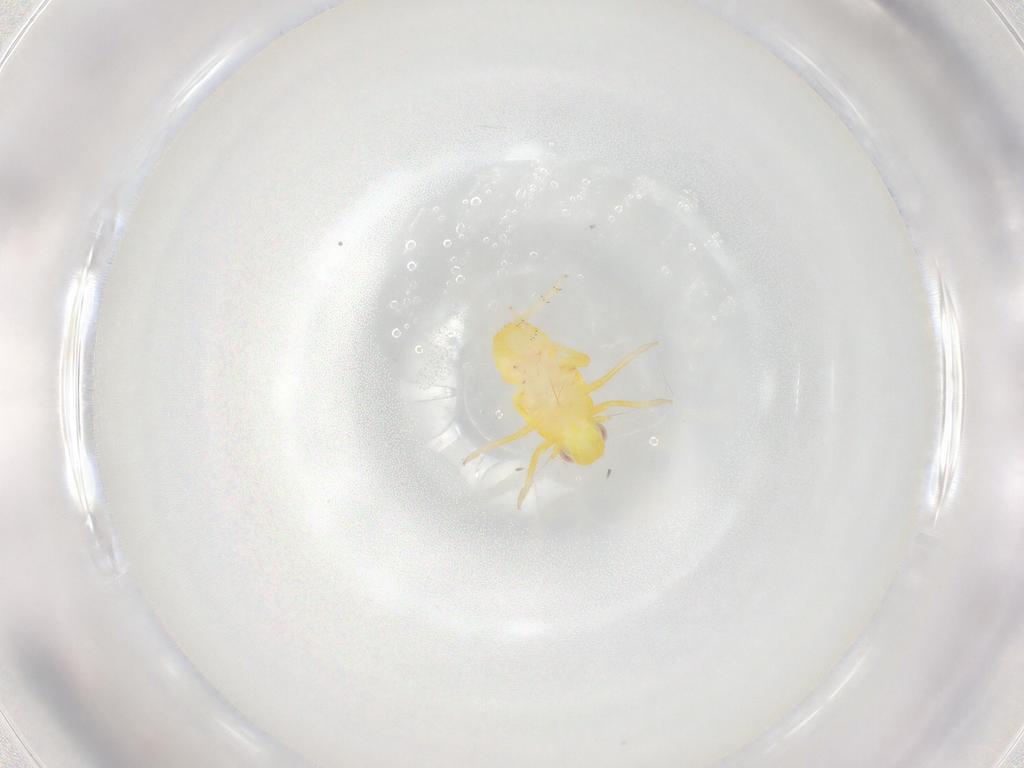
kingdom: Animalia
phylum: Arthropoda
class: Insecta
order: Hemiptera
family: Tropiduchidae
